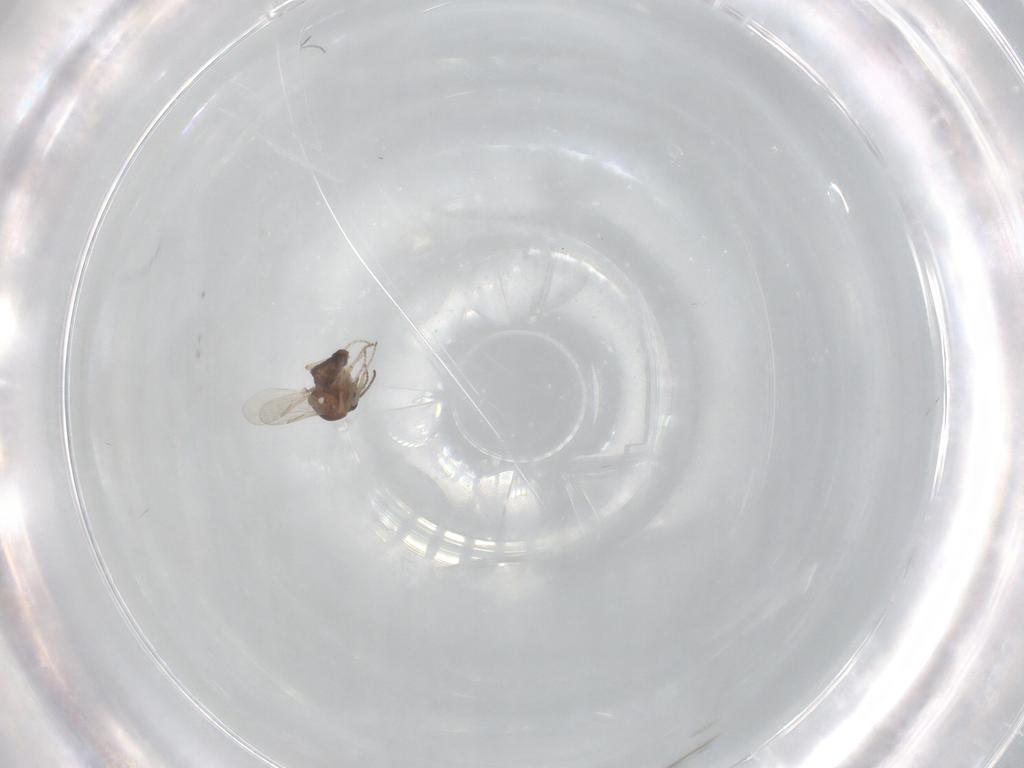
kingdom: Animalia
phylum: Arthropoda
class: Insecta
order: Diptera
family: Ceratopogonidae
